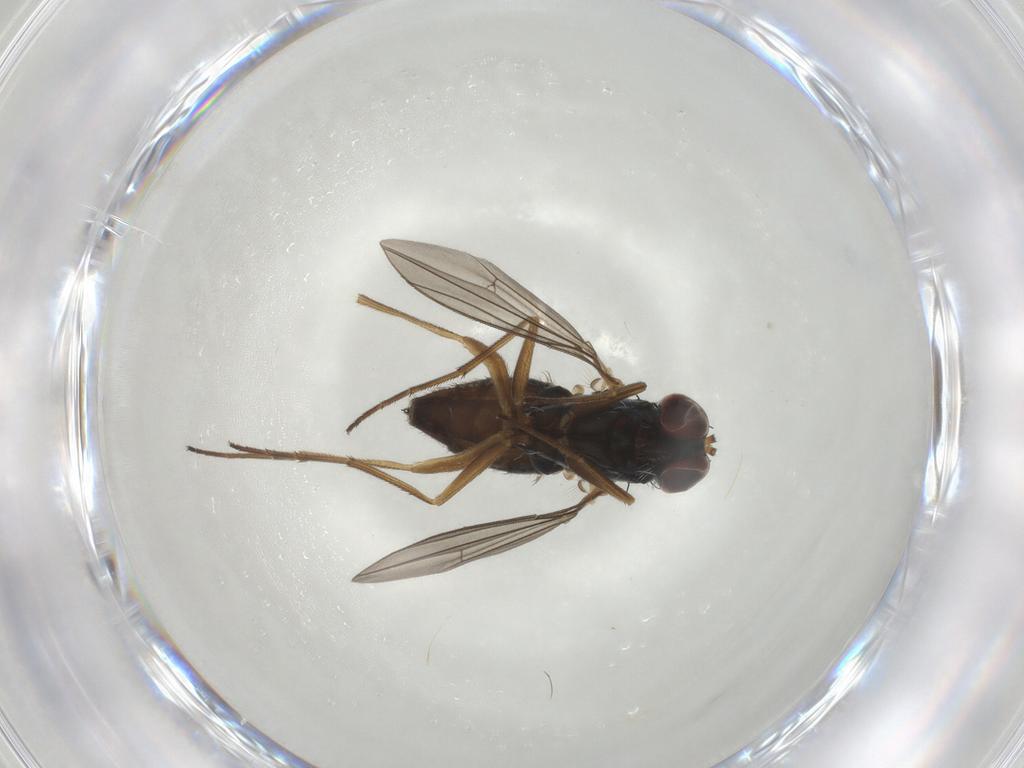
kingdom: Animalia
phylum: Arthropoda
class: Insecta
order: Diptera
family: Dolichopodidae
